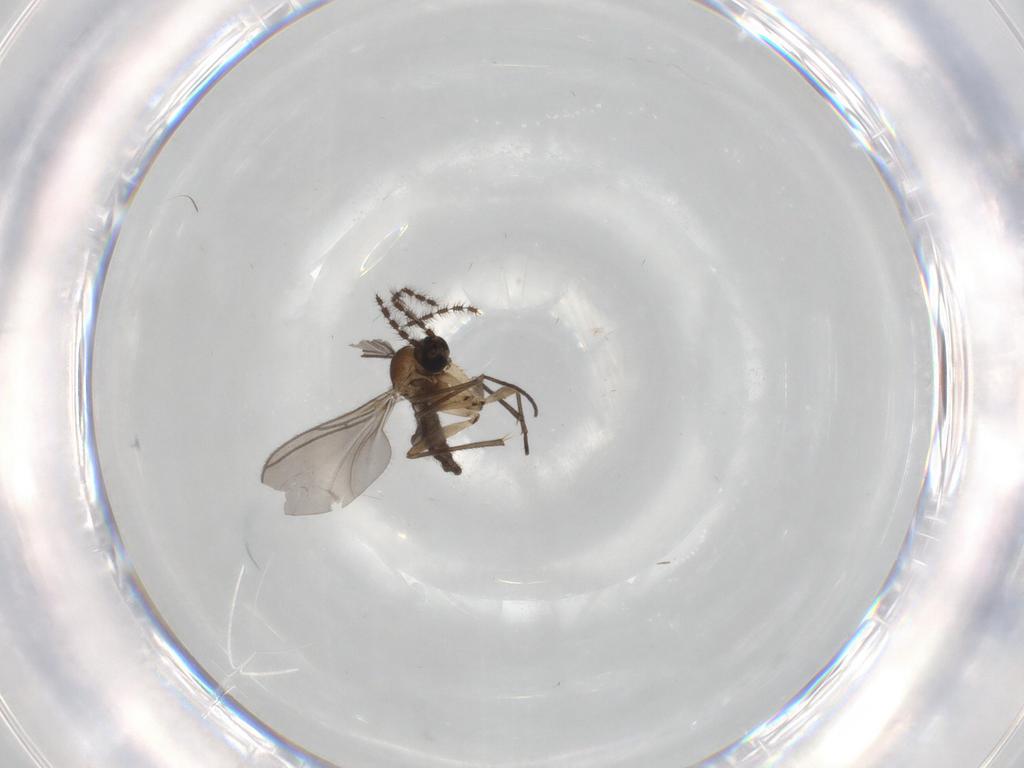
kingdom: Animalia
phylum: Arthropoda
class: Insecta
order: Diptera
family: Sciaridae
